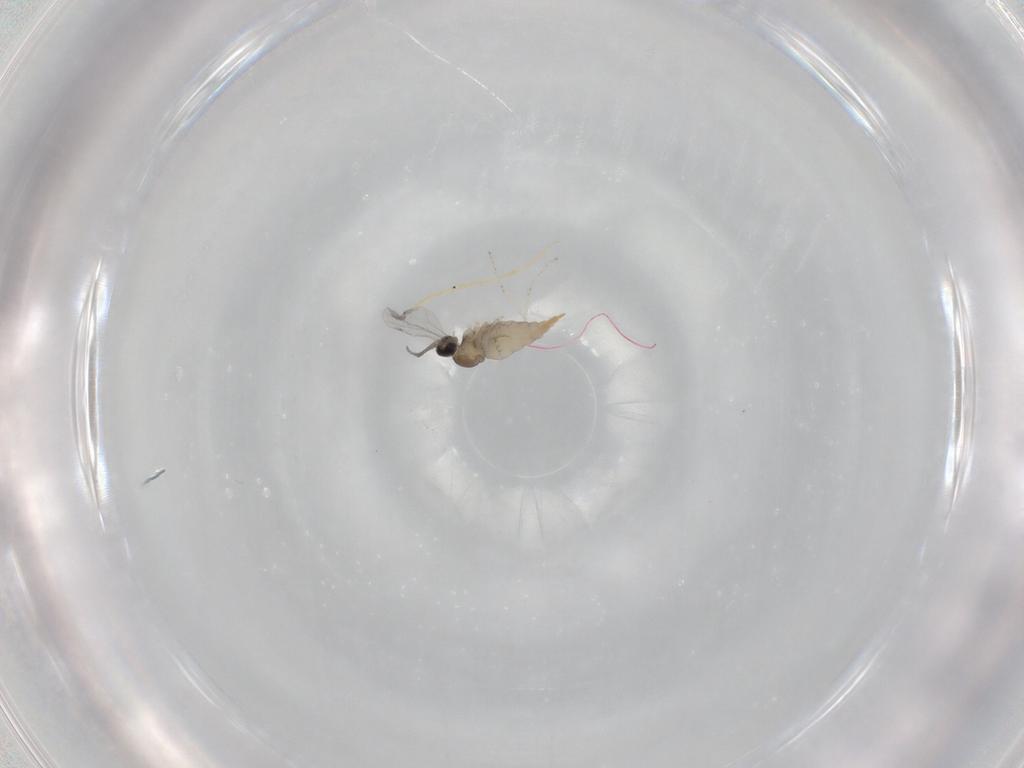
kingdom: Animalia
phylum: Arthropoda
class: Insecta
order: Diptera
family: Cecidomyiidae
